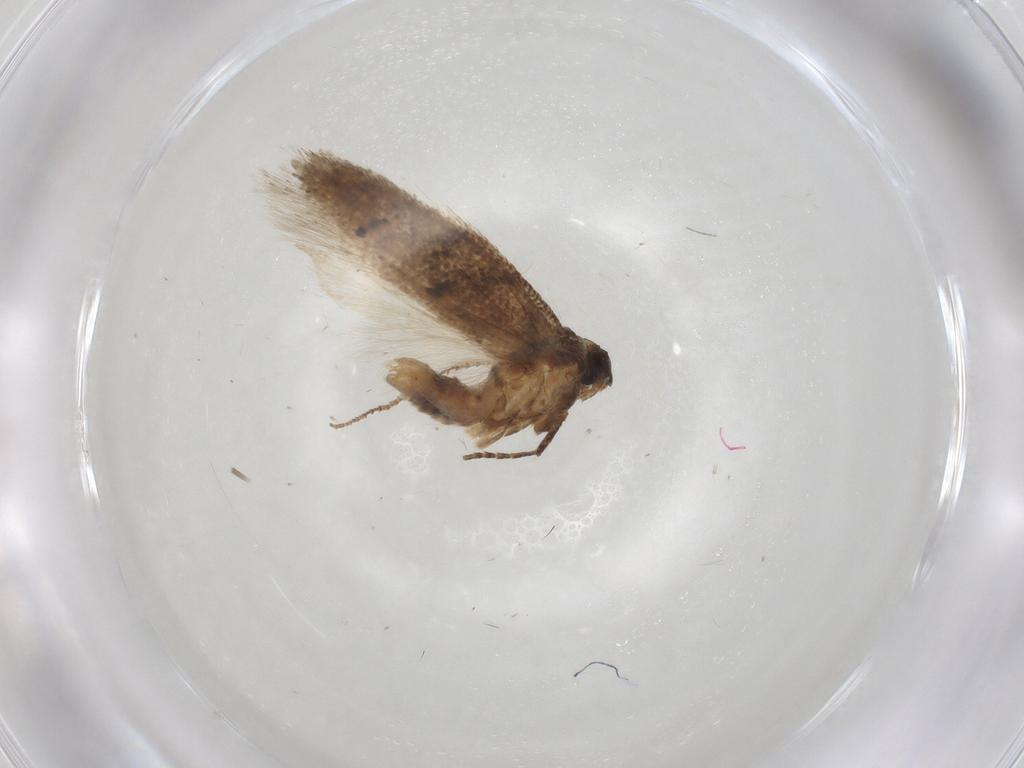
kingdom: Animalia
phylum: Arthropoda
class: Insecta
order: Lepidoptera
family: Gelechiidae
